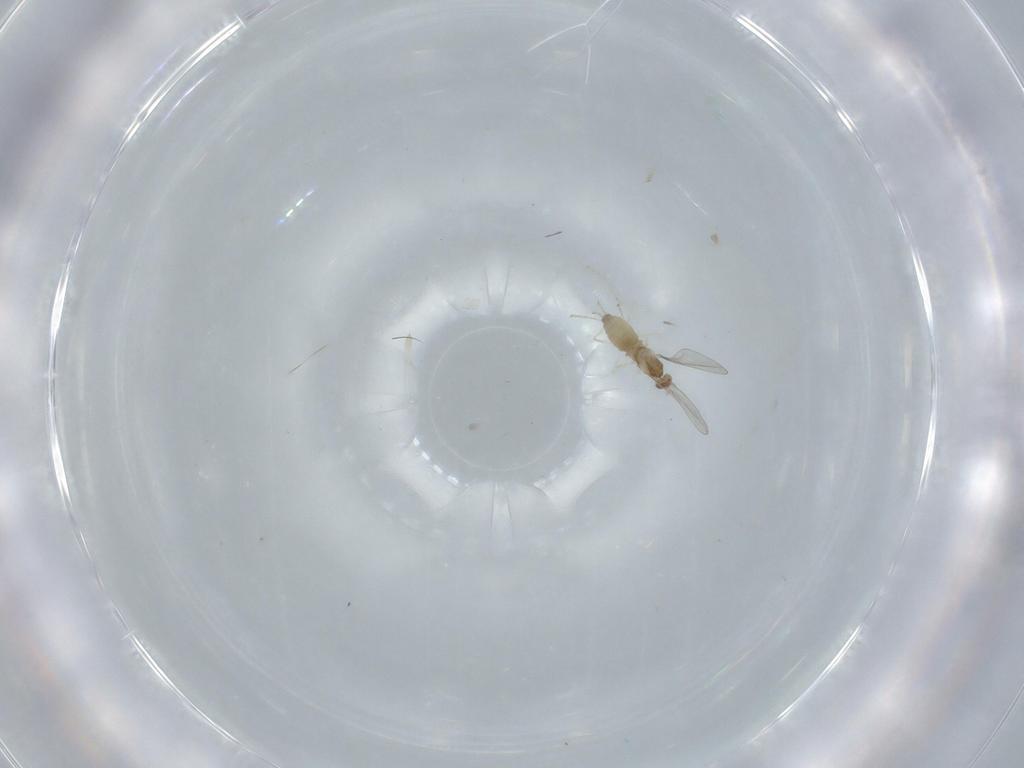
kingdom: Animalia
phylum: Arthropoda
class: Insecta
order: Diptera
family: Cecidomyiidae
